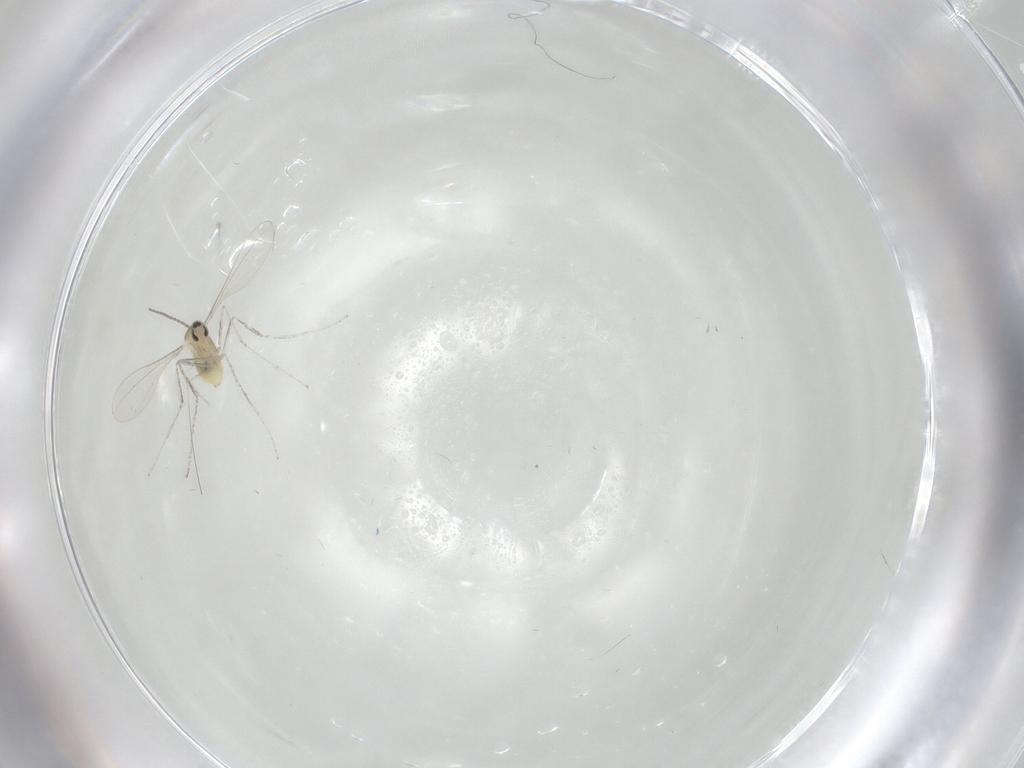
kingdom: Animalia
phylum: Arthropoda
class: Insecta
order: Diptera
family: Cecidomyiidae
